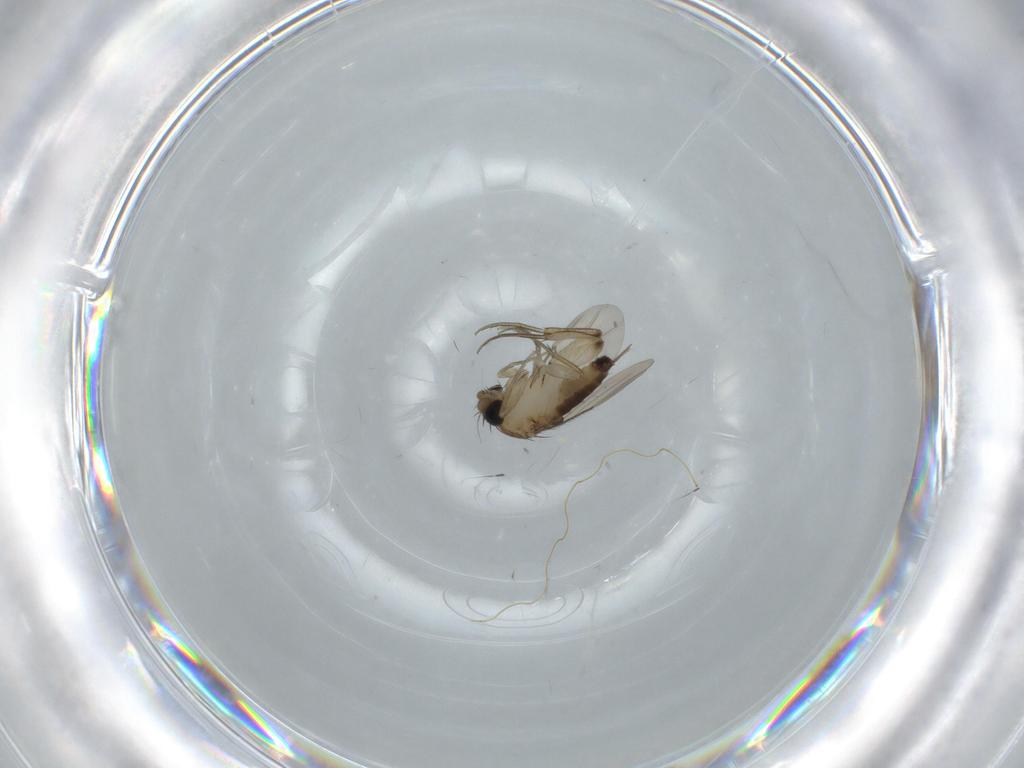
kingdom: Animalia
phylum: Arthropoda
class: Insecta
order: Diptera
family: Phoridae
